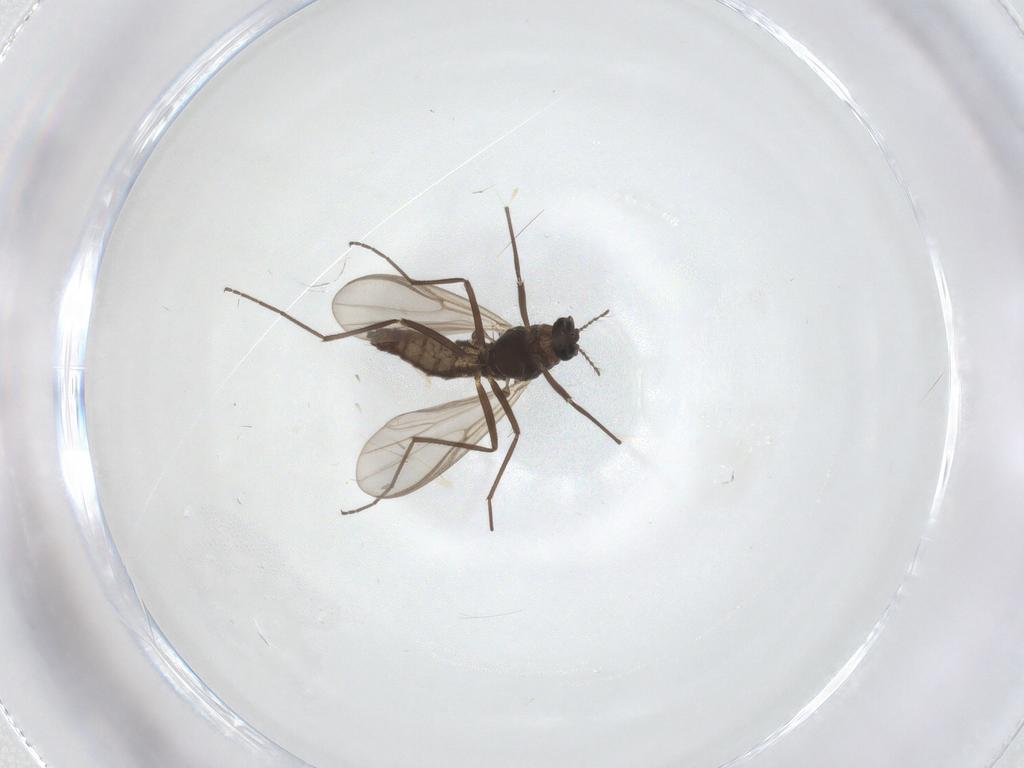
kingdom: Animalia
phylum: Arthropoda
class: Insecta
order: Diptera
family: Chironomidae
